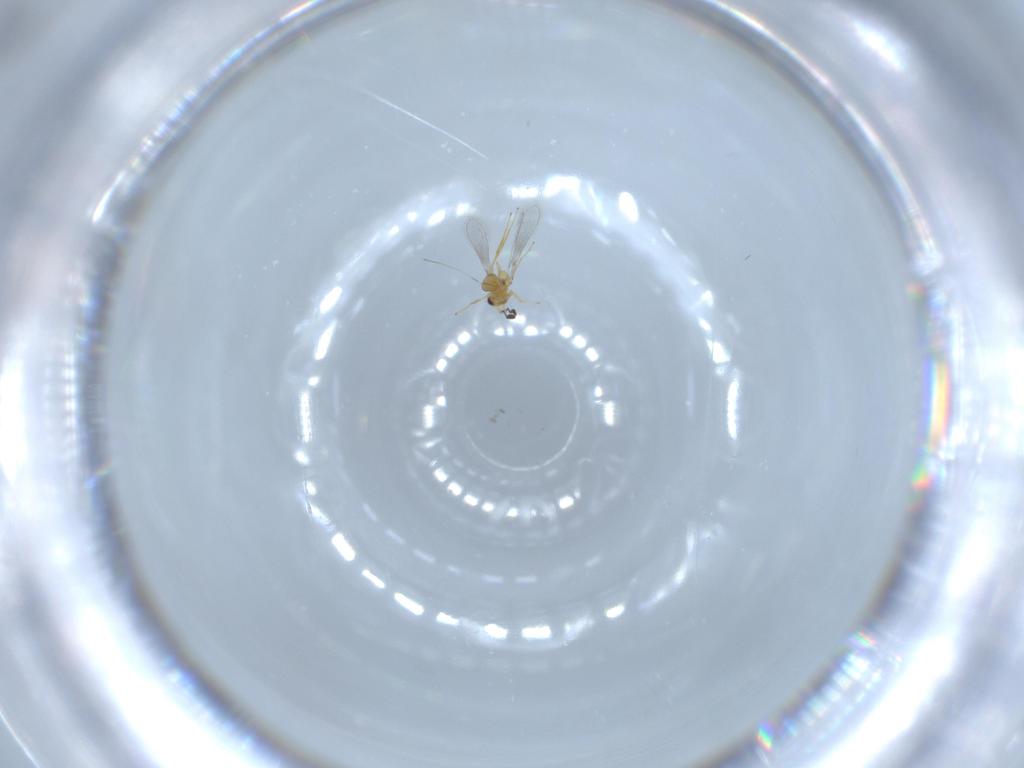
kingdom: Animalia
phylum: Arthropoda
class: Insecta
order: Hymenoptera
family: Mymaridae
